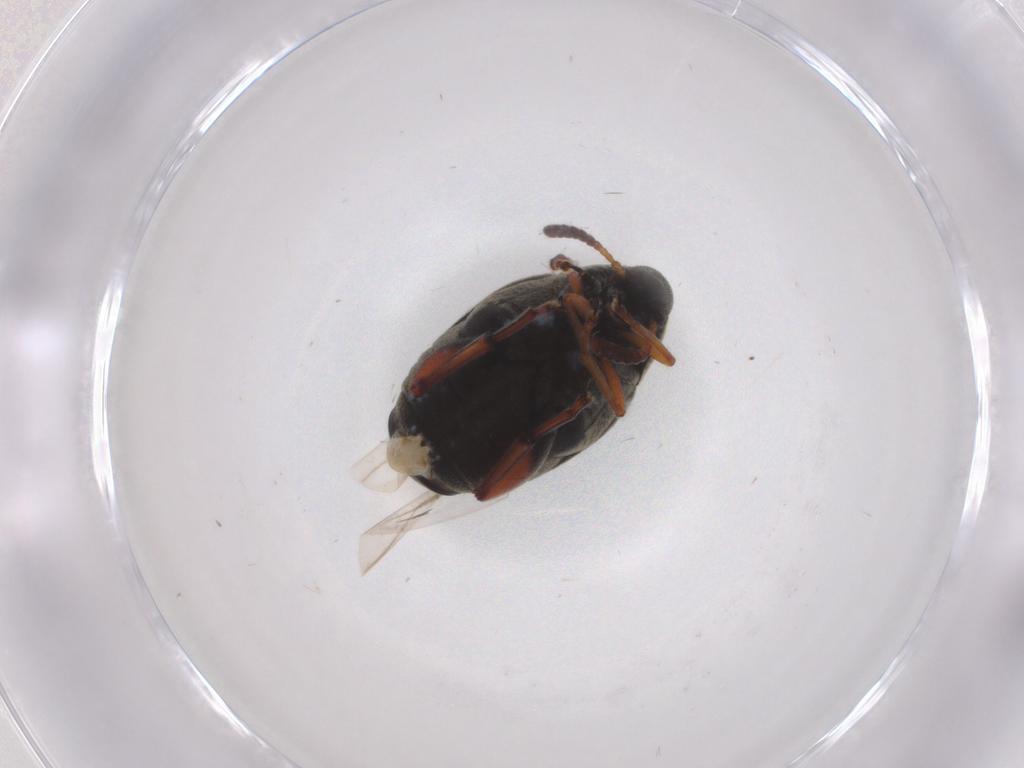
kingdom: Animalia
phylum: Arthropoda
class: Insecta
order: Coleoptera
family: Chrysomelidae
